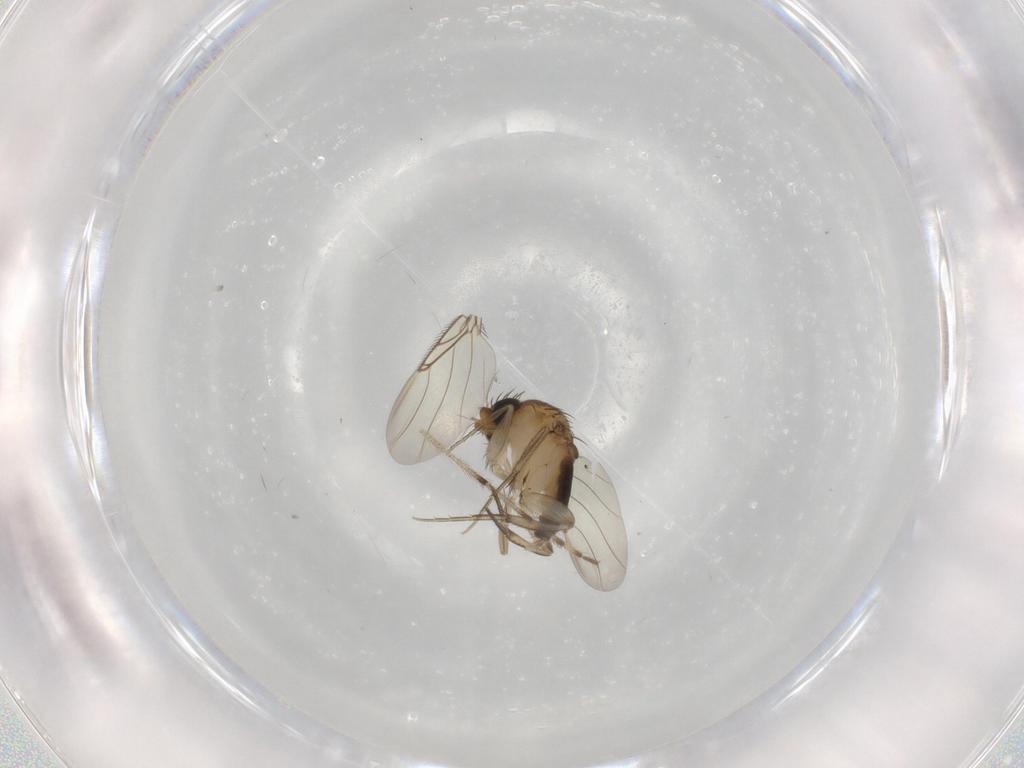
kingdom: Animalia
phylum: Arthropoda
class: Insecta
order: Diptera
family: Phoridae
